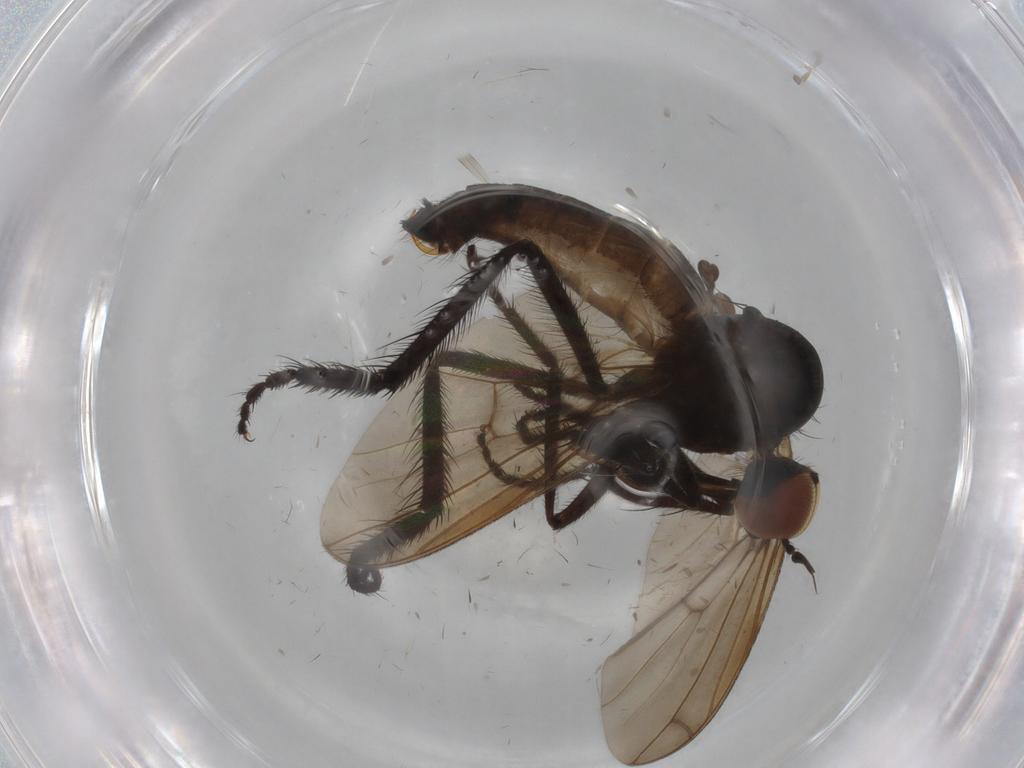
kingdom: Animalia
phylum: Arthropoda
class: Insecta
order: Diptera
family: Empididae
